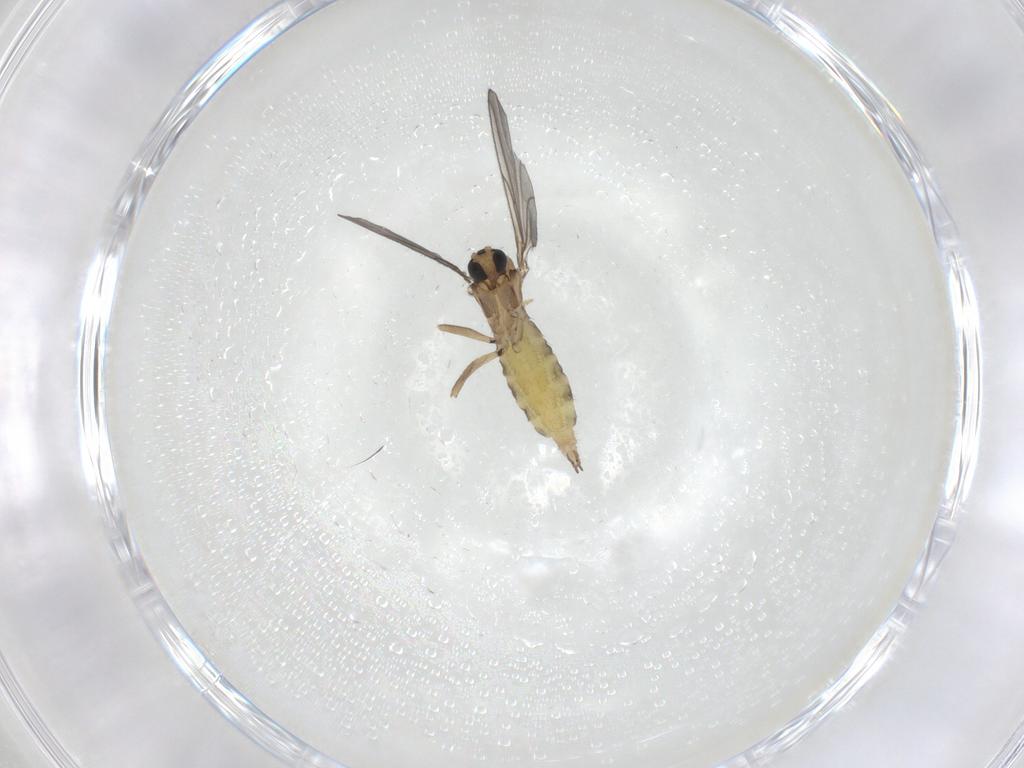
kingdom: Animalia
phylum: Arthropoda
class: Insecta
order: Diptera
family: Sciaridae
